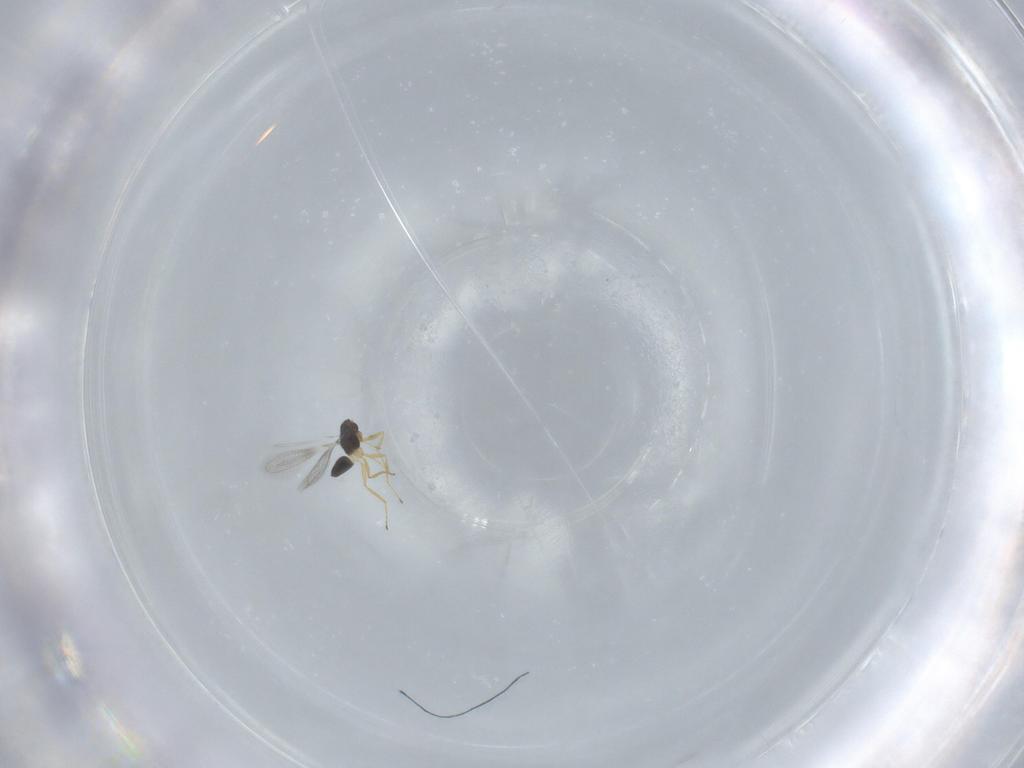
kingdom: Animalia
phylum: Arthropoda
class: Insecta
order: Hymenoptera
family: Mymaridae
